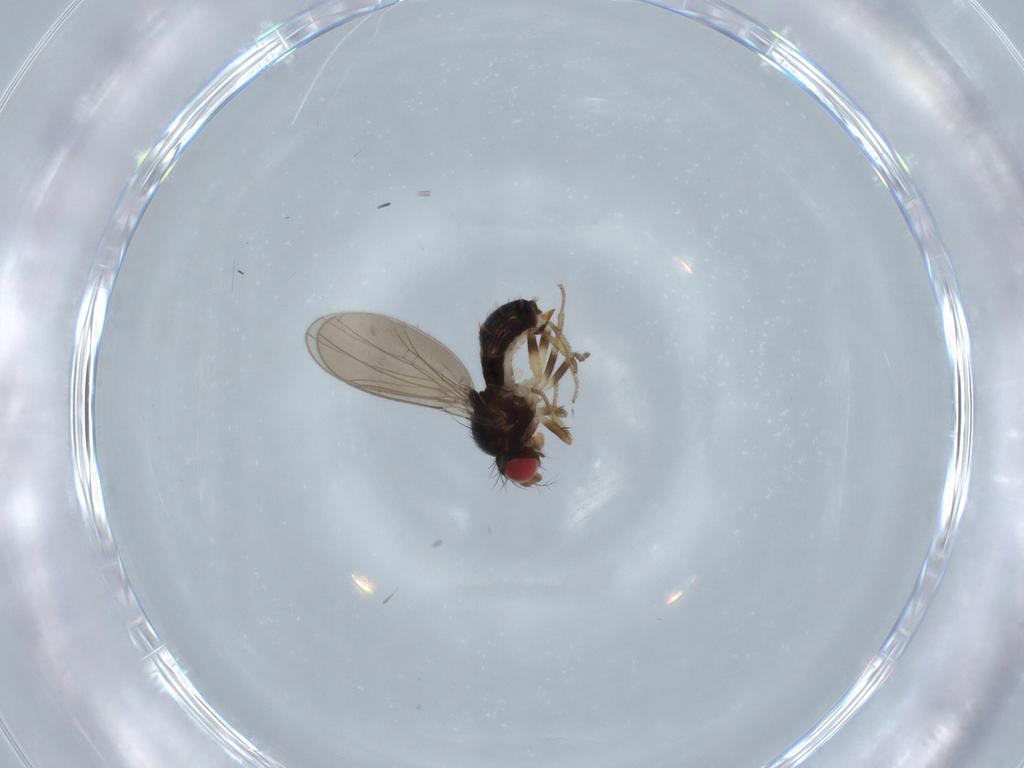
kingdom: Animalia
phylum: Arthropoda
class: Insecta
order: Diptera
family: Drosophilidae
